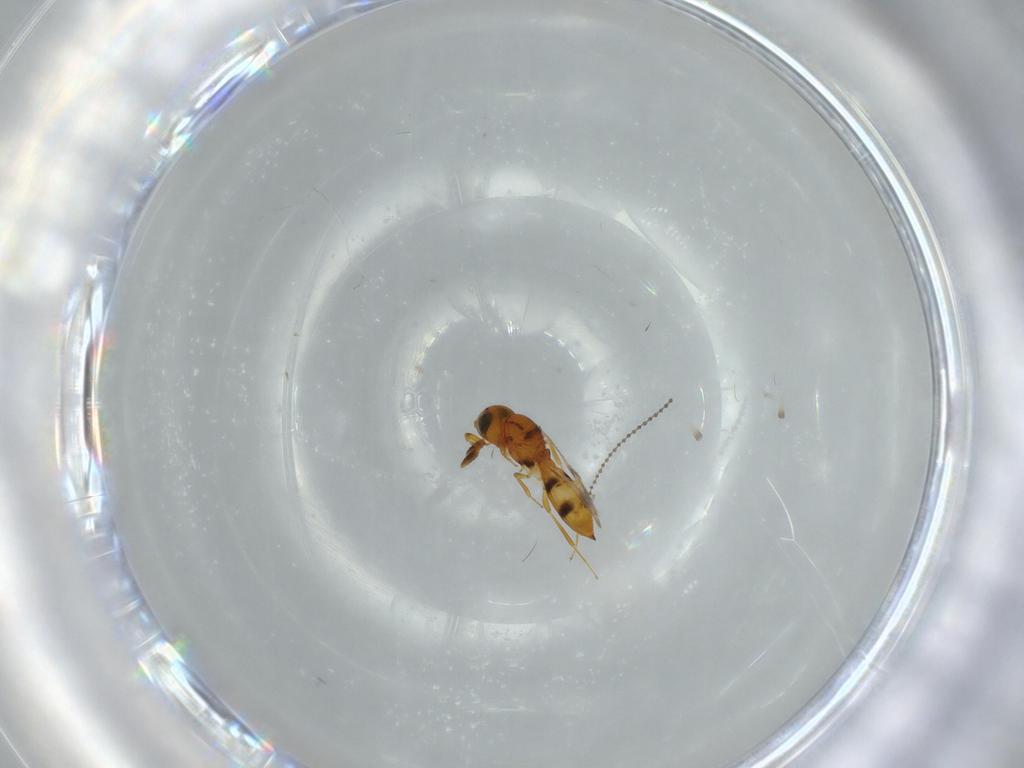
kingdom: Animalia
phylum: Arthropoda
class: Insecta
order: Hymenoptera
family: Scelionidae
